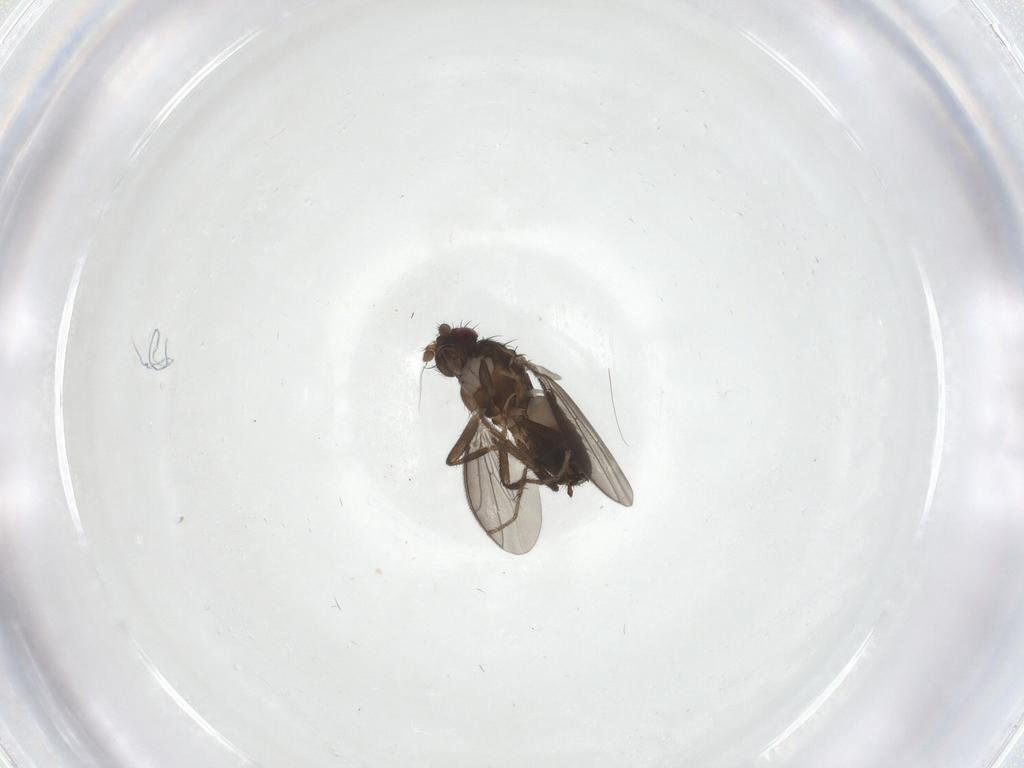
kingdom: Animalia
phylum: Arthropoda
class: Insecta
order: Diptera
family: Sciaridae
